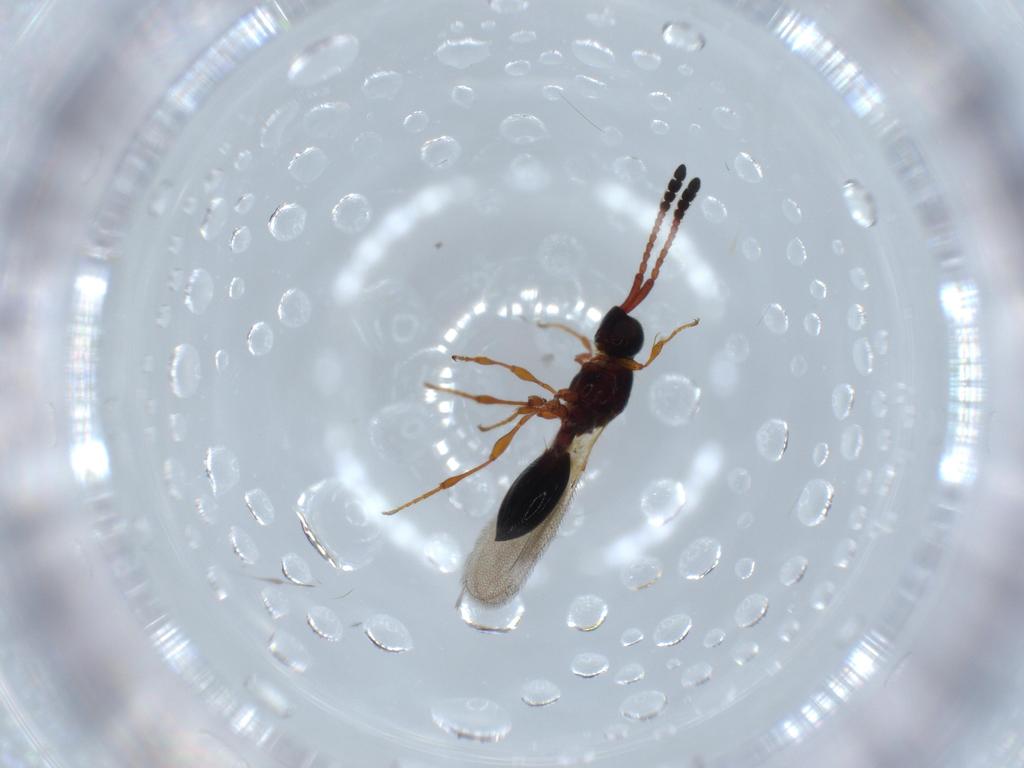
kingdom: Animalia
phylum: Arthropoda
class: Insecta
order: Hymenoptera
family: Diapriidae
